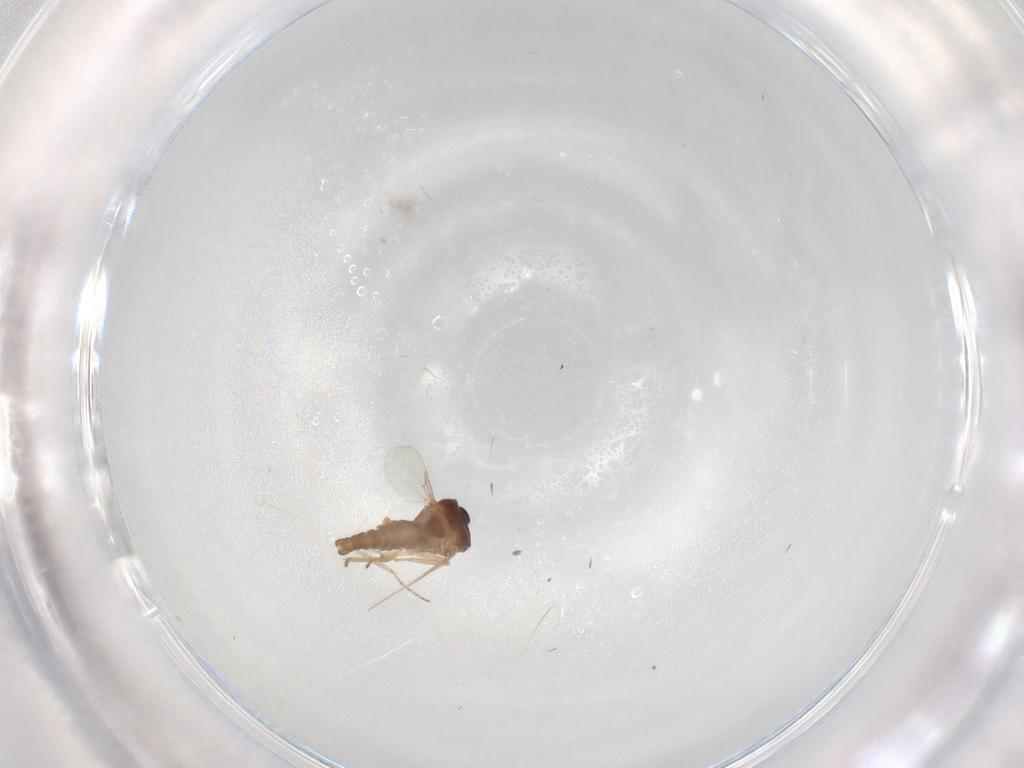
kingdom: Animalia
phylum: Arthropoda
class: Insecta
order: Diptera
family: Ceratopogonidae
